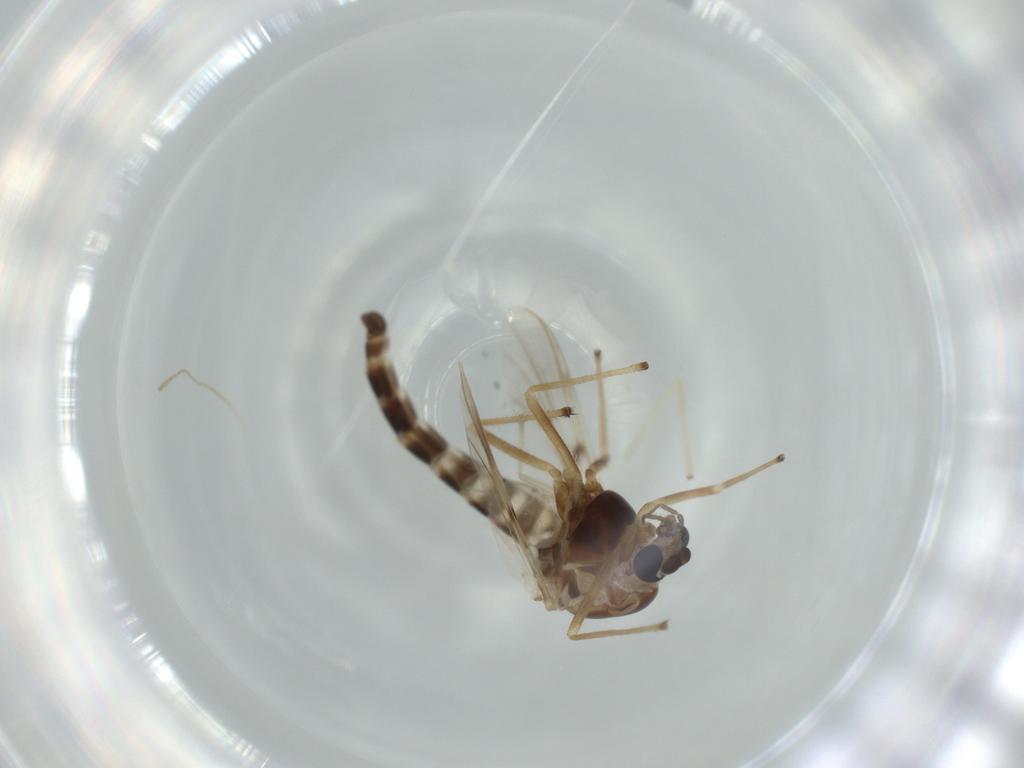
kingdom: Animalia
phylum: Arthropoda
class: Insecta
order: Diptera
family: Chironomidae
